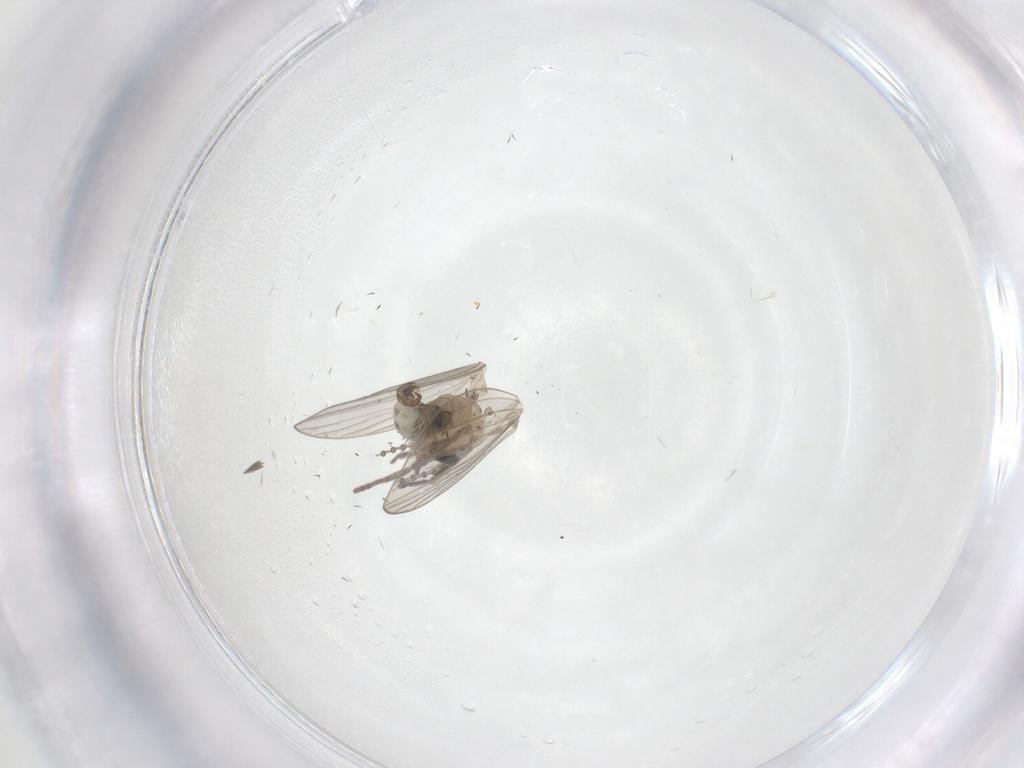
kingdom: Animalia
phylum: Arthropoda
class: Insecta
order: Diptera
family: Psychodidae
